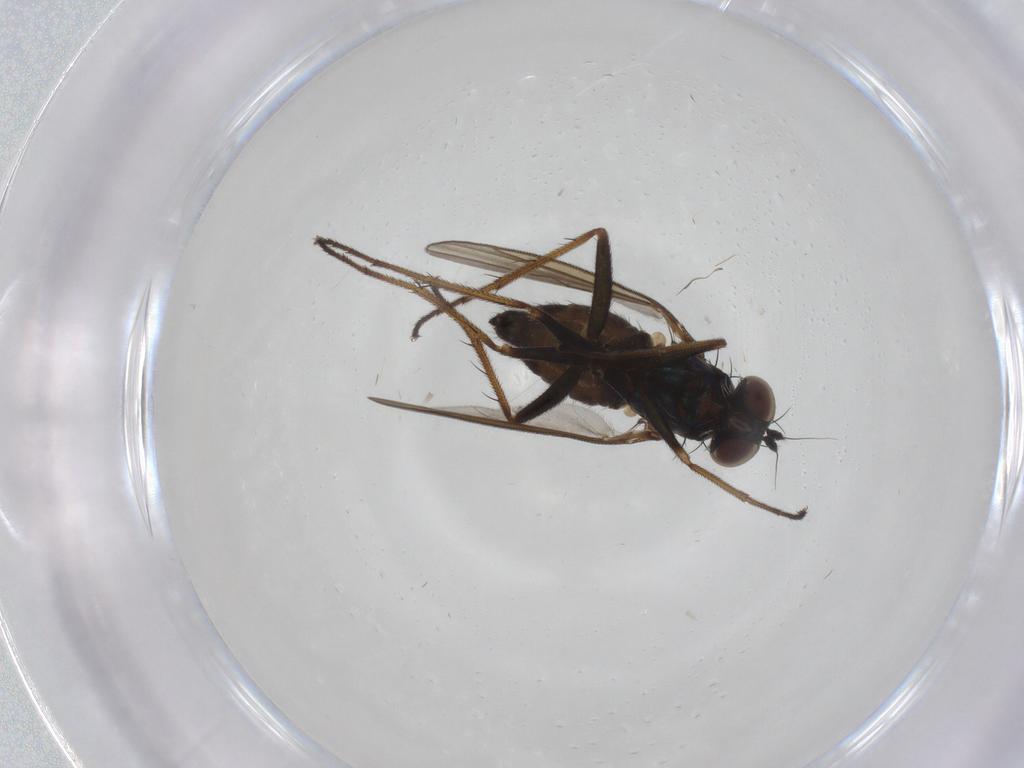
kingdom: Animalia
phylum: Arthropoda
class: Insecta
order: Diptera
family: Dolichopodidae
